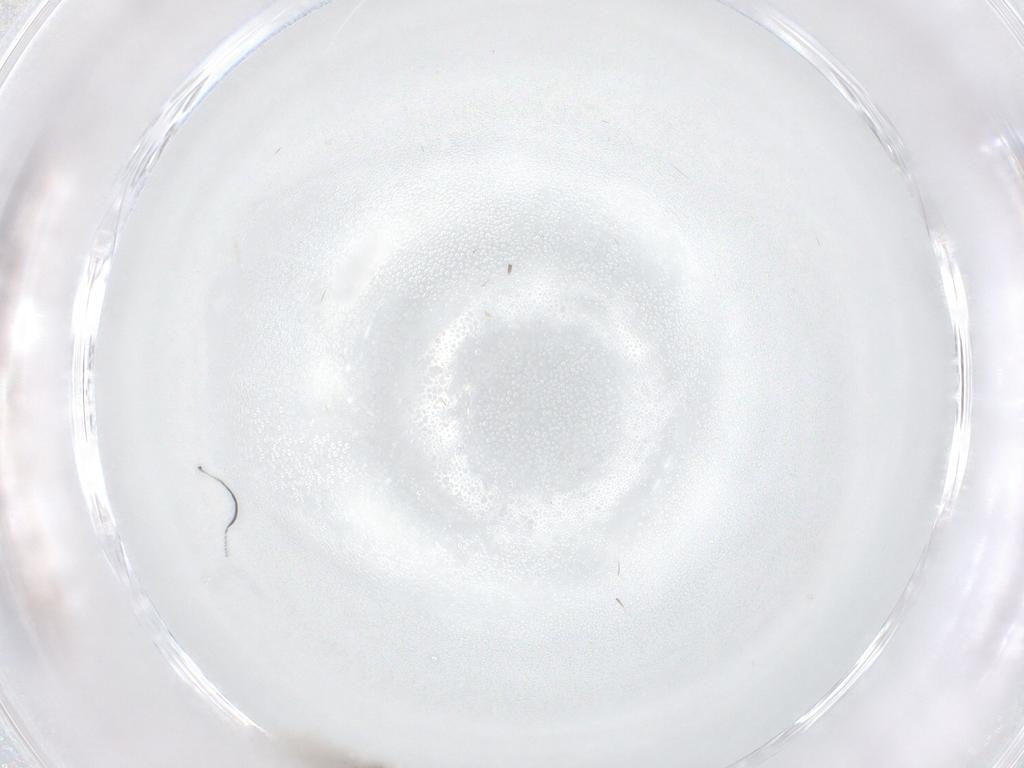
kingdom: Animalia
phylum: Arthropoda
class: Insecta
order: Diptera
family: Cecidomyiidae
